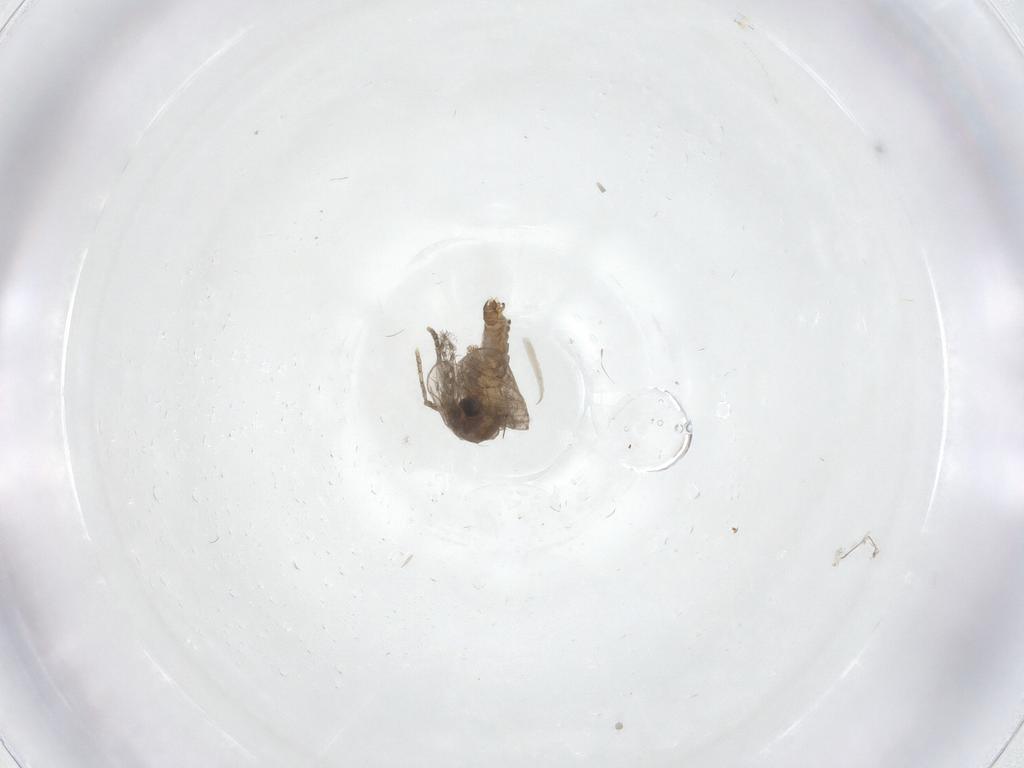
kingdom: Animalia
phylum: Arthropoda
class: Insecta
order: Diptera
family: Psychodidae
